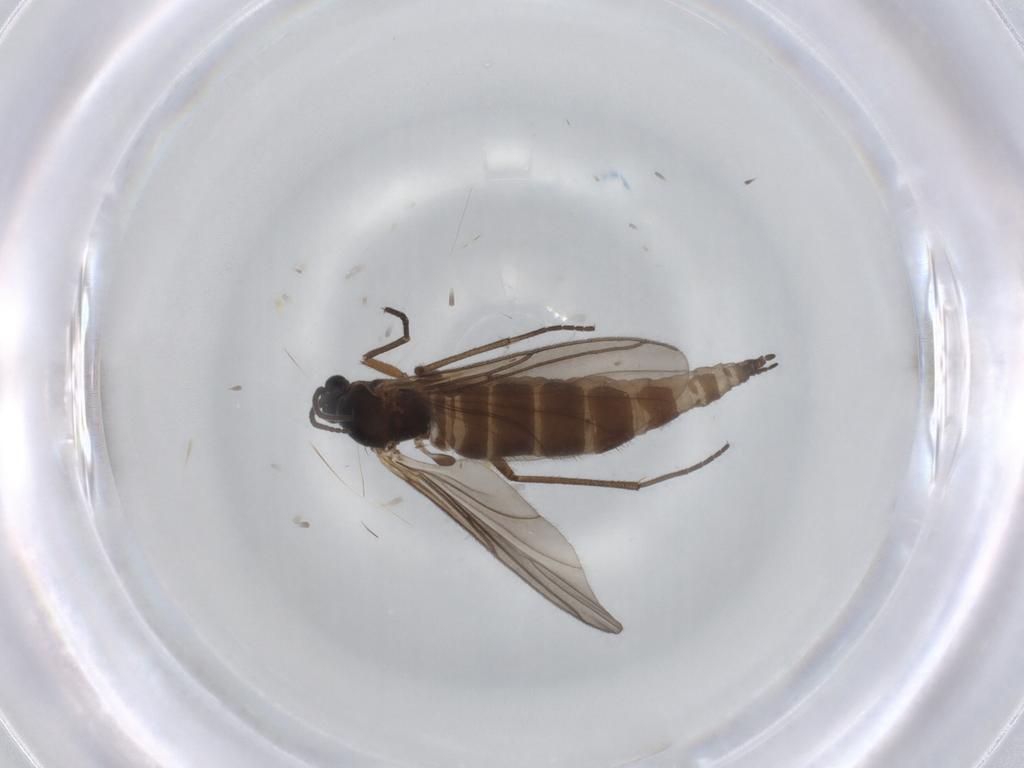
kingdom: Animalia
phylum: Arthropoda
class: Insecta
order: Diptera
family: Sciaridae
